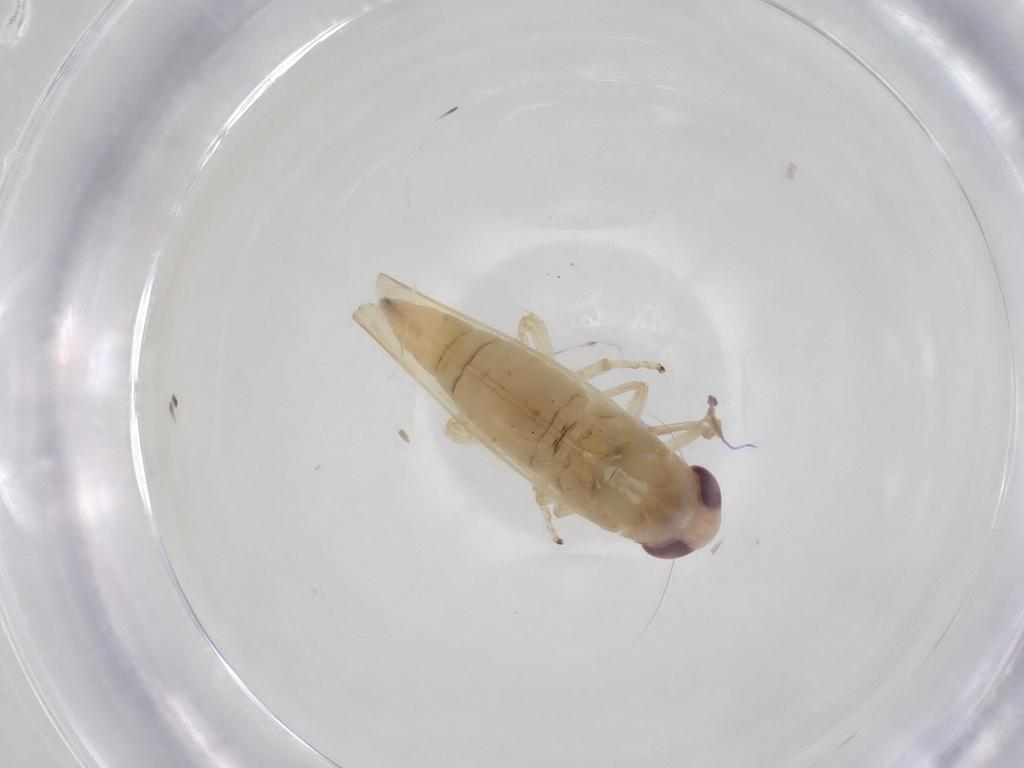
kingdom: Animalia
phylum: Arthropoda
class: Insecta
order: Hemiptera
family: Cicadellidae
